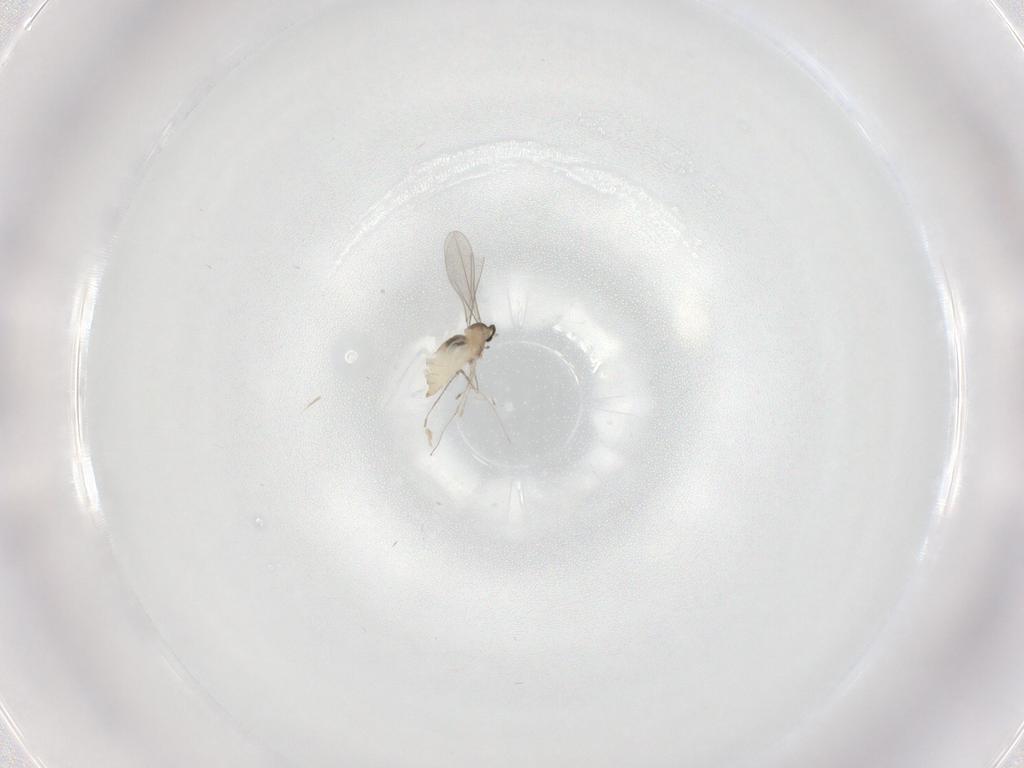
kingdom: Animalia
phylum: Arthropoda
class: Insecta
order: Diptera
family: Cecidomyiidae
